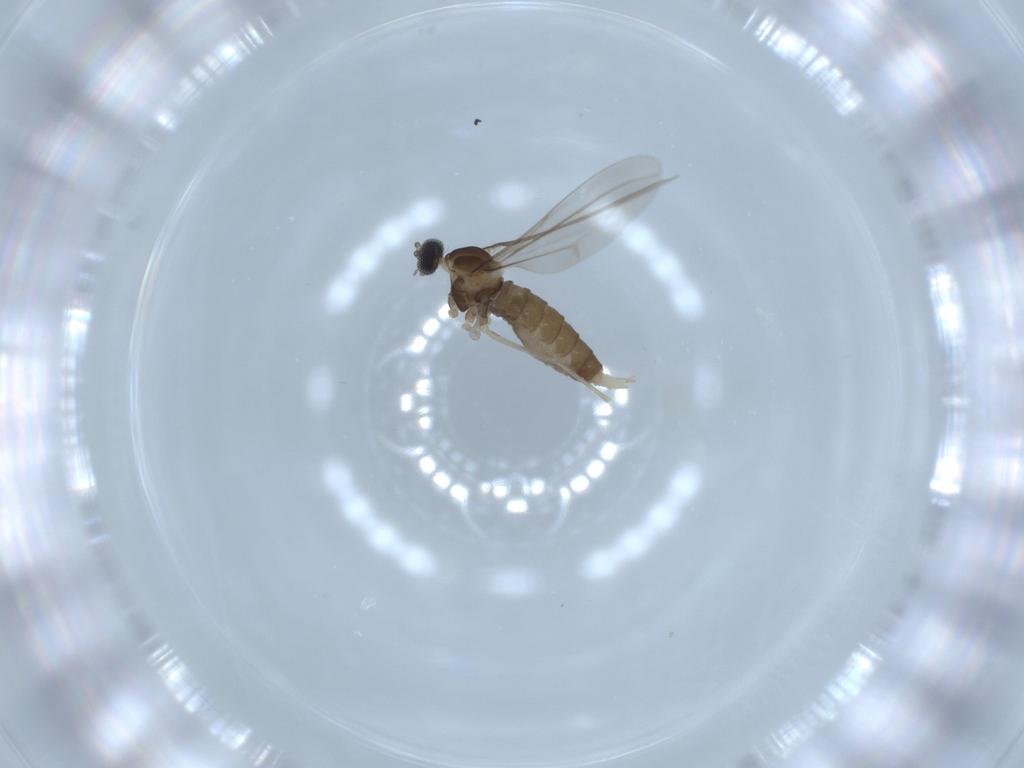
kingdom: Animalia
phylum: Arthropoda
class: Insecta
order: Diptera
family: Cecidomyiidae
